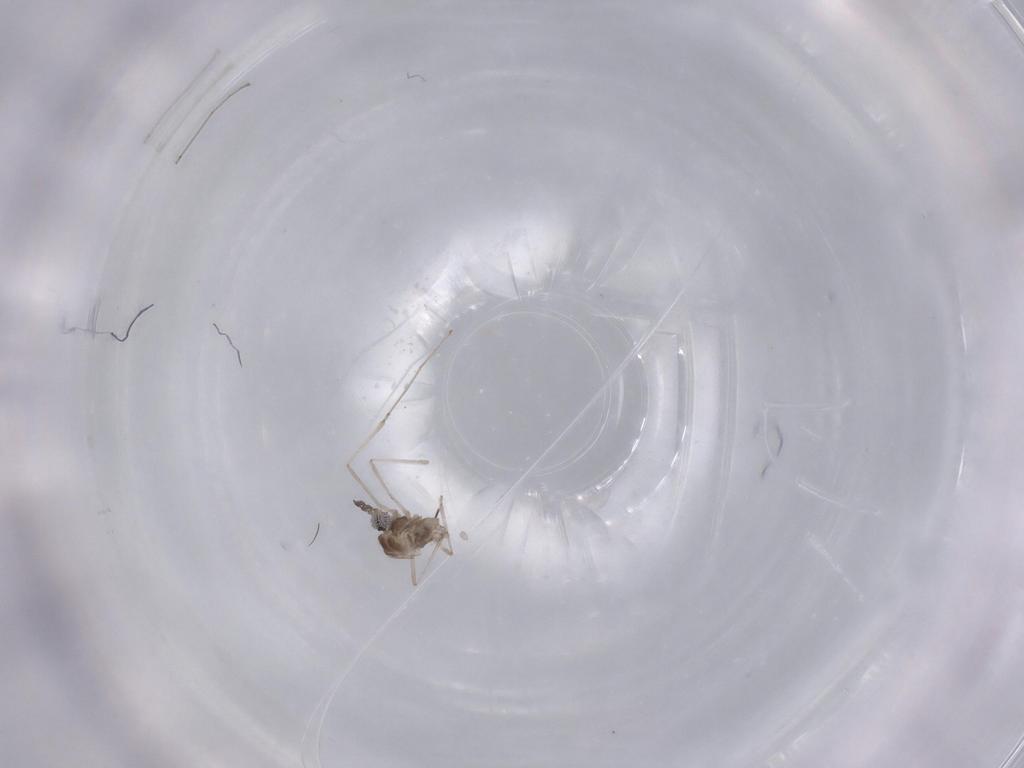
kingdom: Animalia
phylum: Arthropoda
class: Insecta
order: Diptera
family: Cecidomyiidae
